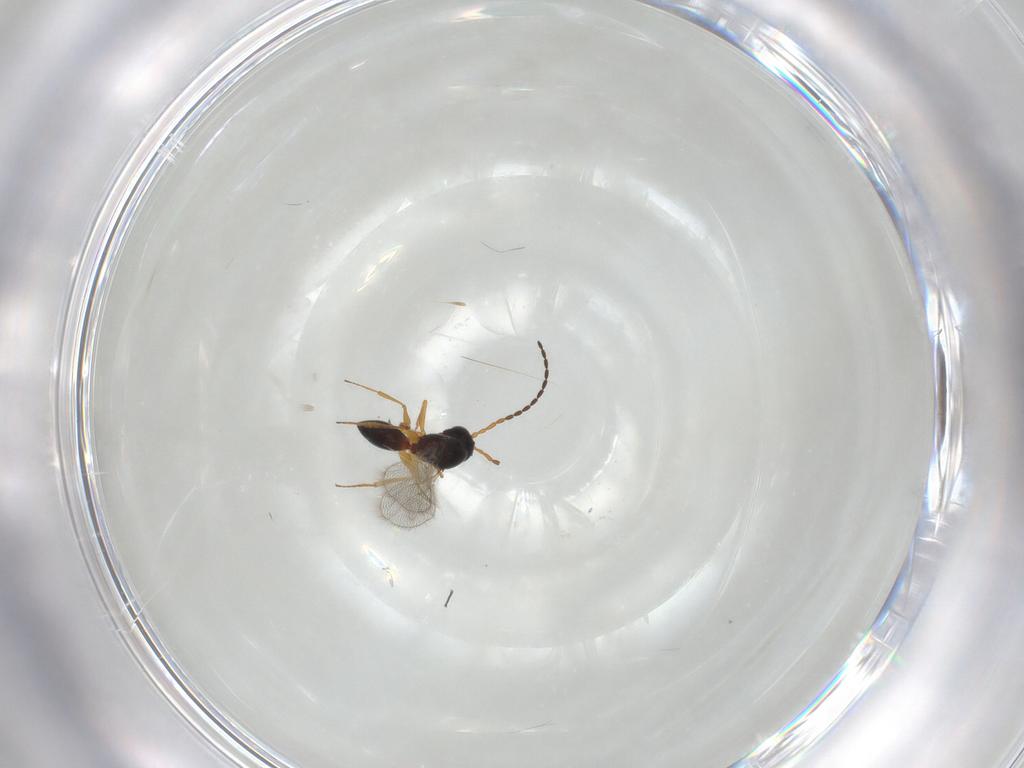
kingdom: Animalia
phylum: Arthropoda
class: Insecta
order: Hymenoptera
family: Figitidae
